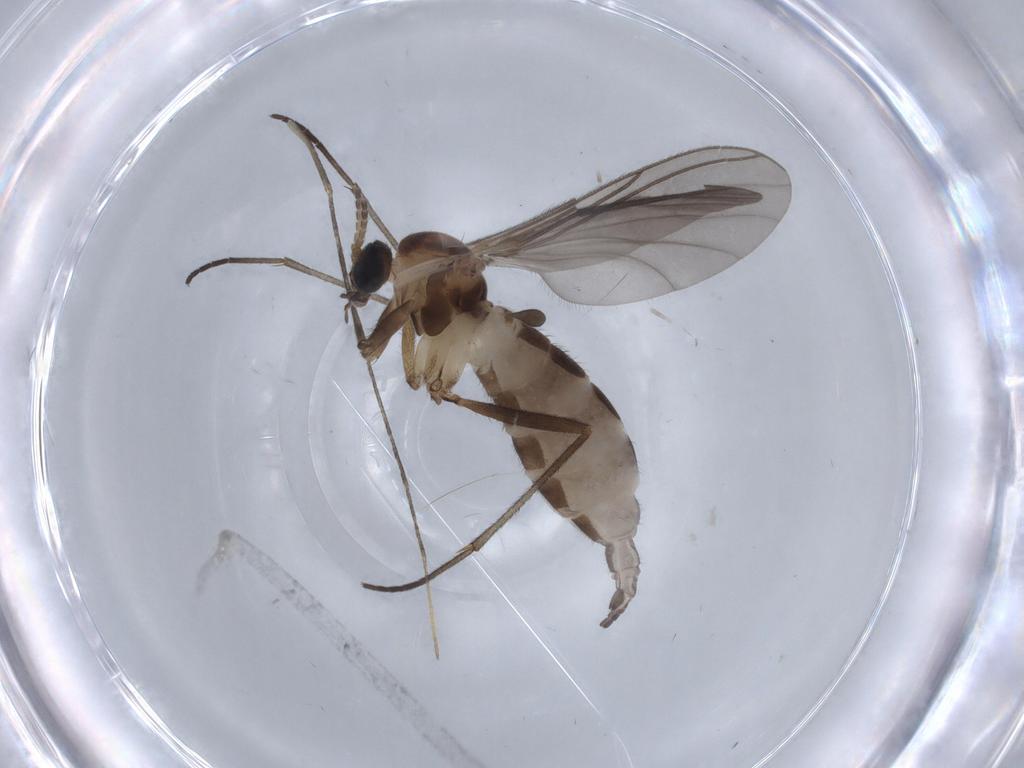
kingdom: Animalia
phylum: Arthropoda
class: Insecta
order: Diptera
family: Sciaridae
